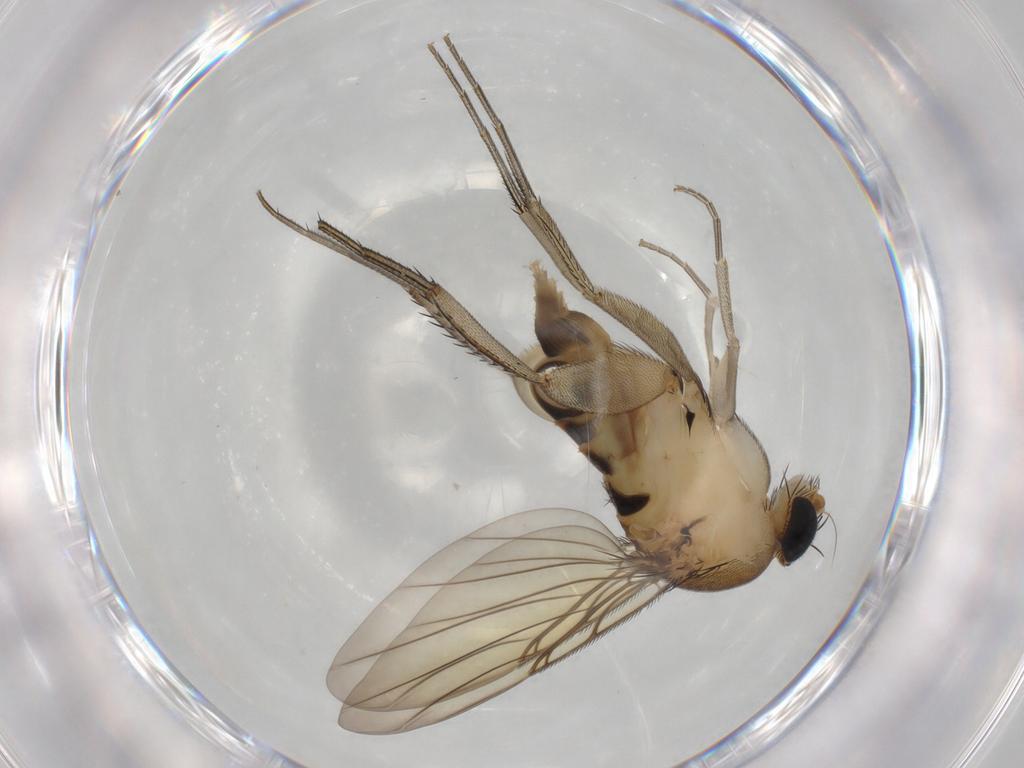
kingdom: Animalia
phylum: Arthropoda
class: Insecta
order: Diptera
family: Phoridae
